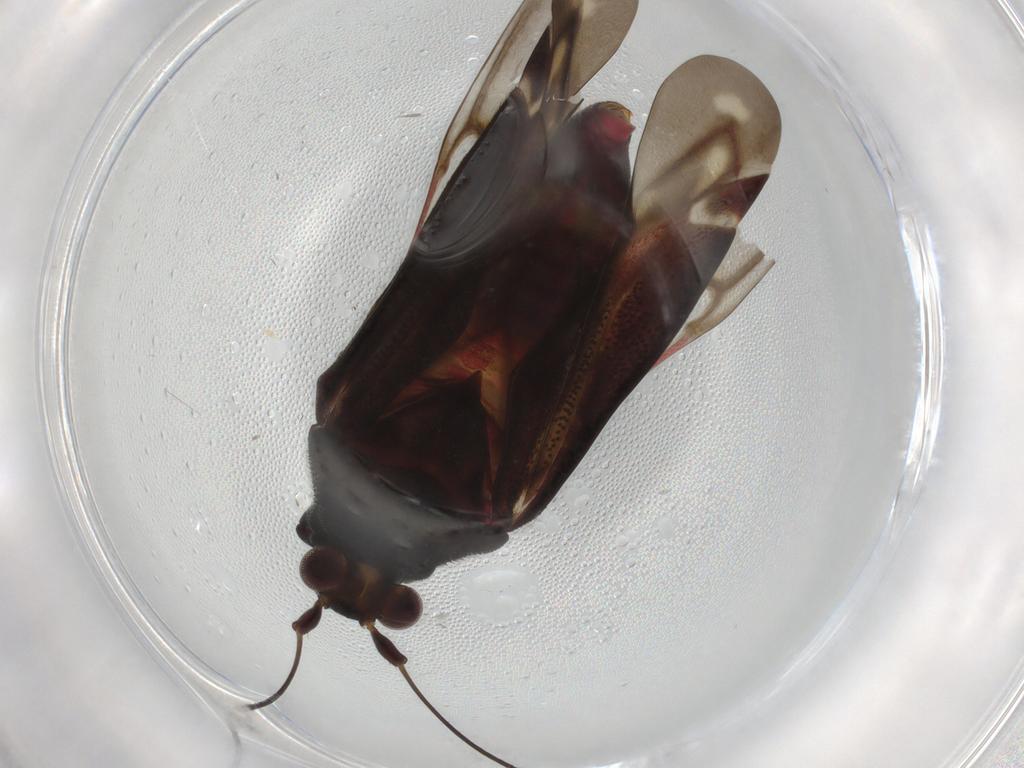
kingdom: Animalia
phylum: Arthropoda
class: Insecta
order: Hemiptera
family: Miridae
